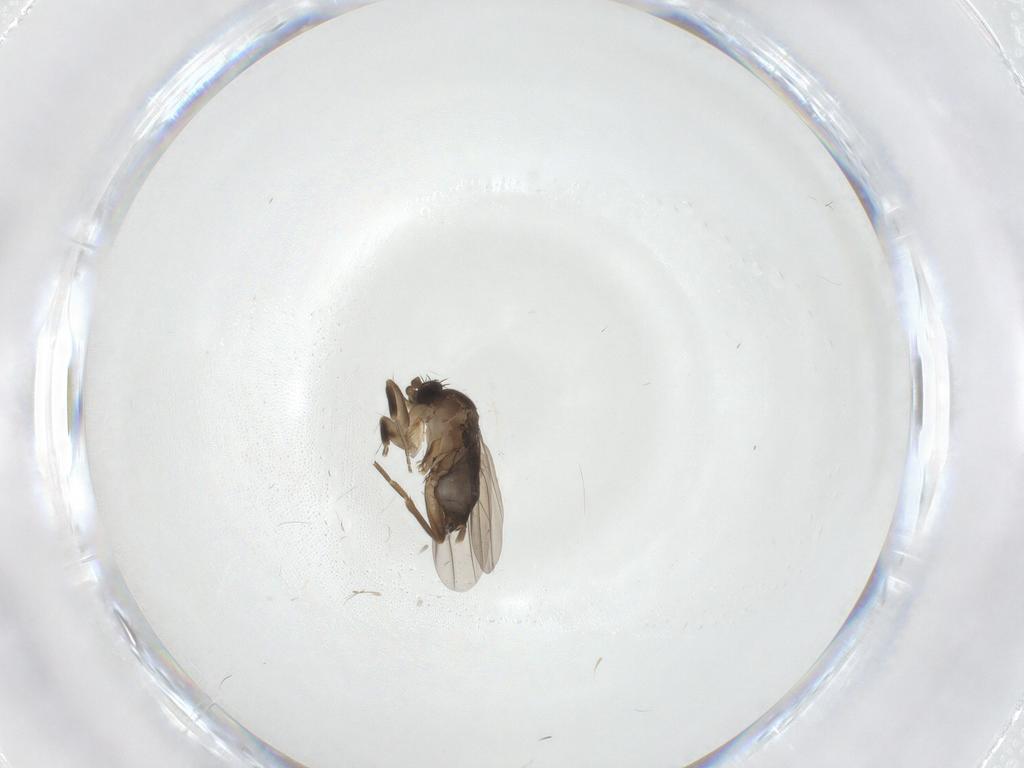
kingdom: Animalia
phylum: Arthropoda
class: Insecta
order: Diptera
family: Phoridae
